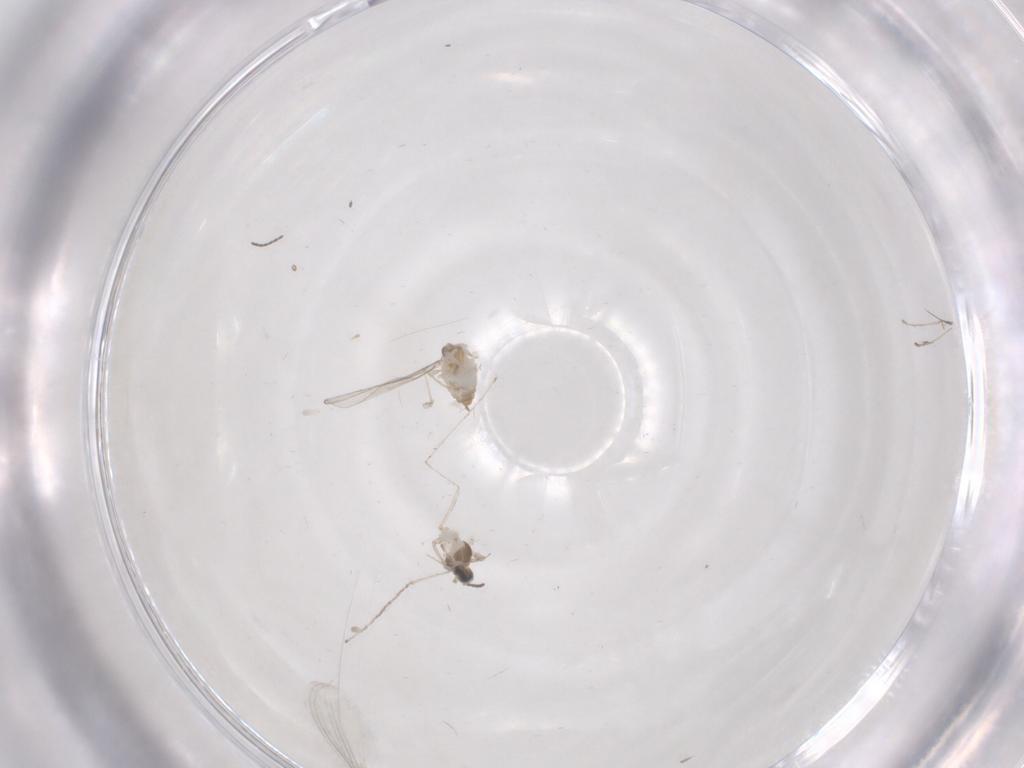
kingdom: Animalia
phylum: Arthropoda
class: Insecta
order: Diptera
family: Cecidomyiidae
